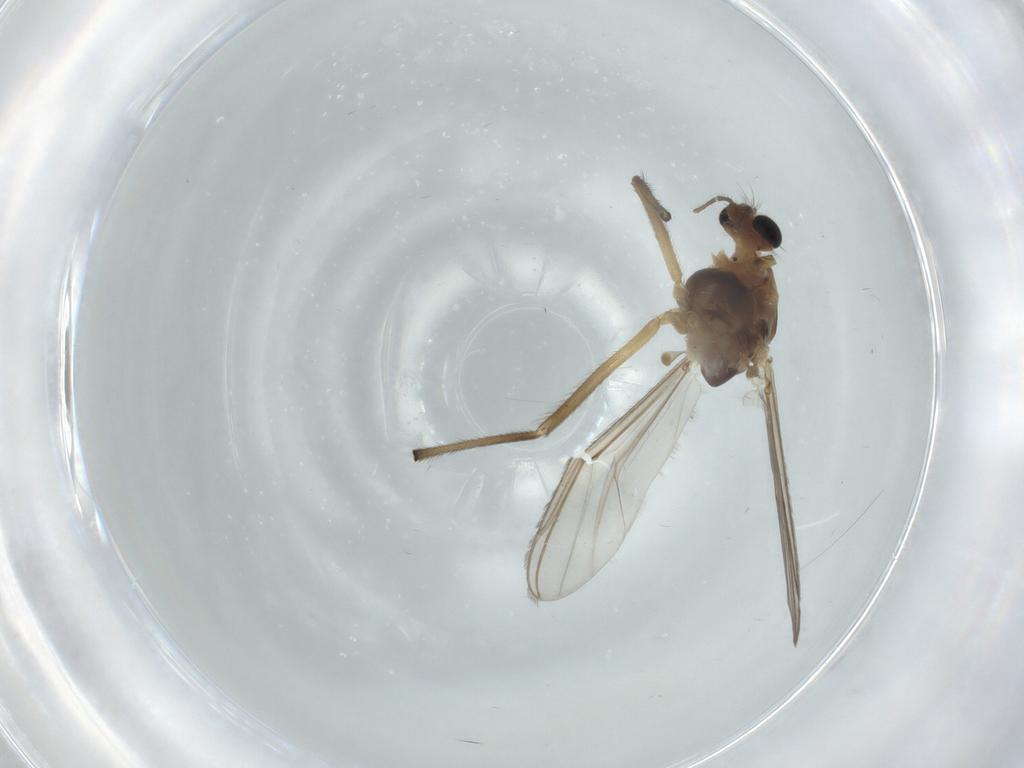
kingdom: Animalia
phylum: Arthropoda
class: Insecta
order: Diptera
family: Chironomidae
